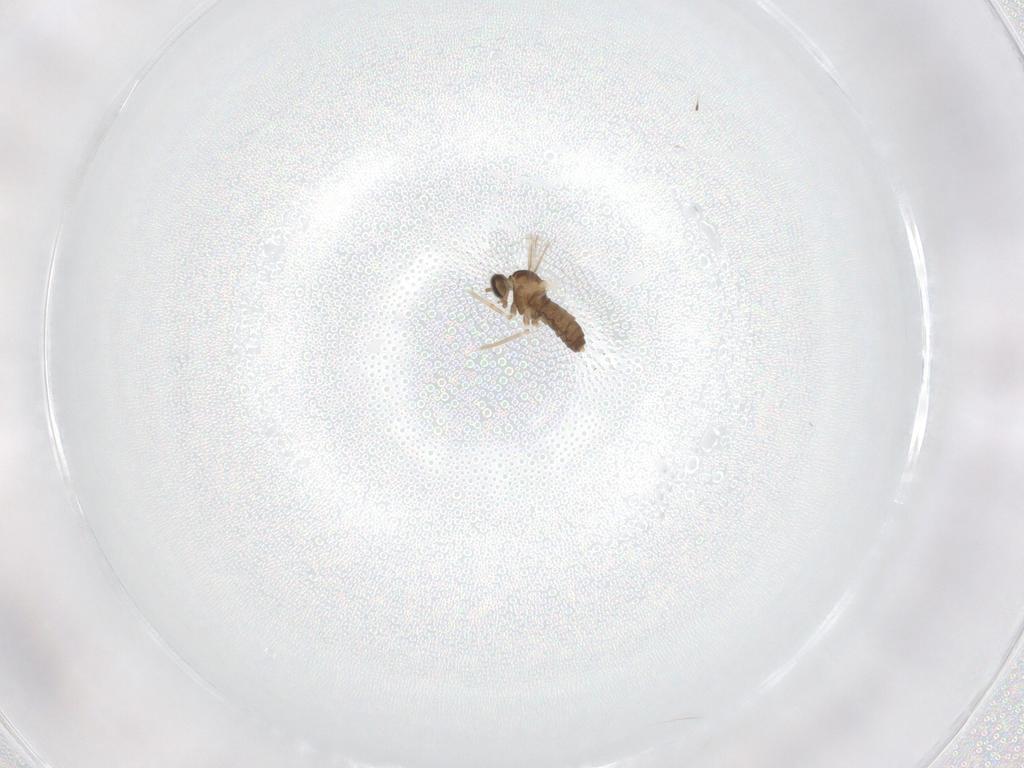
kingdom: Animalia
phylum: Arthropoda
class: Insecta
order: Diptera
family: Cecidomyiidae
